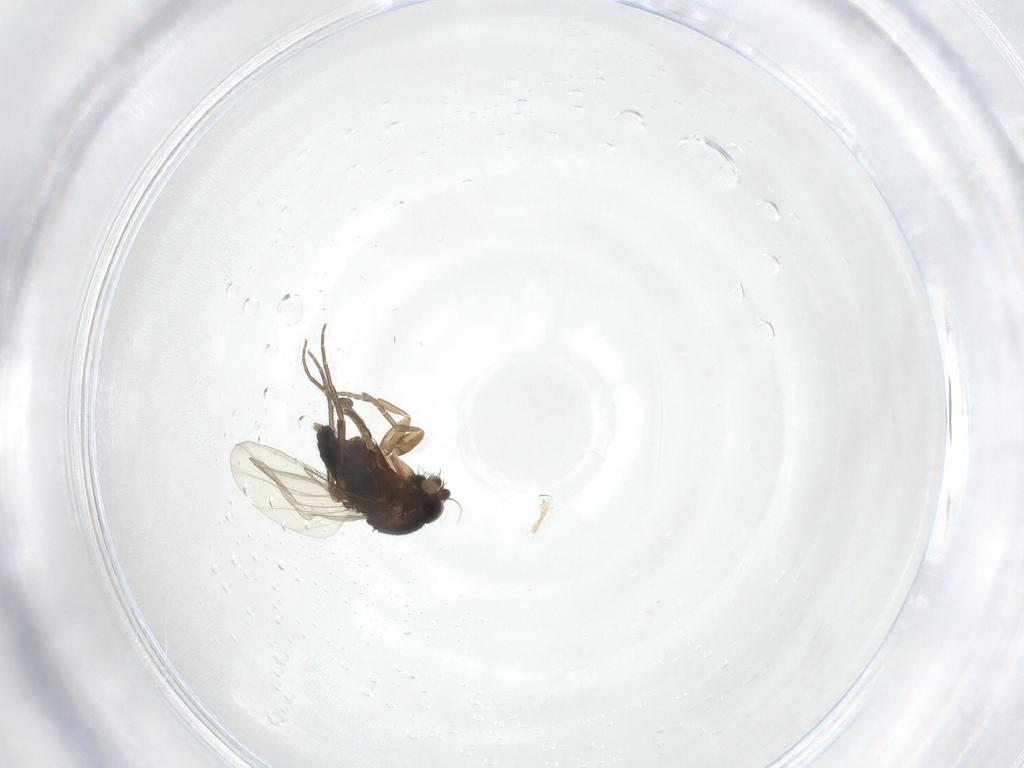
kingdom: Animalia
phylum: Arthropoda
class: Insecta
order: Diptera
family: Phoridae
